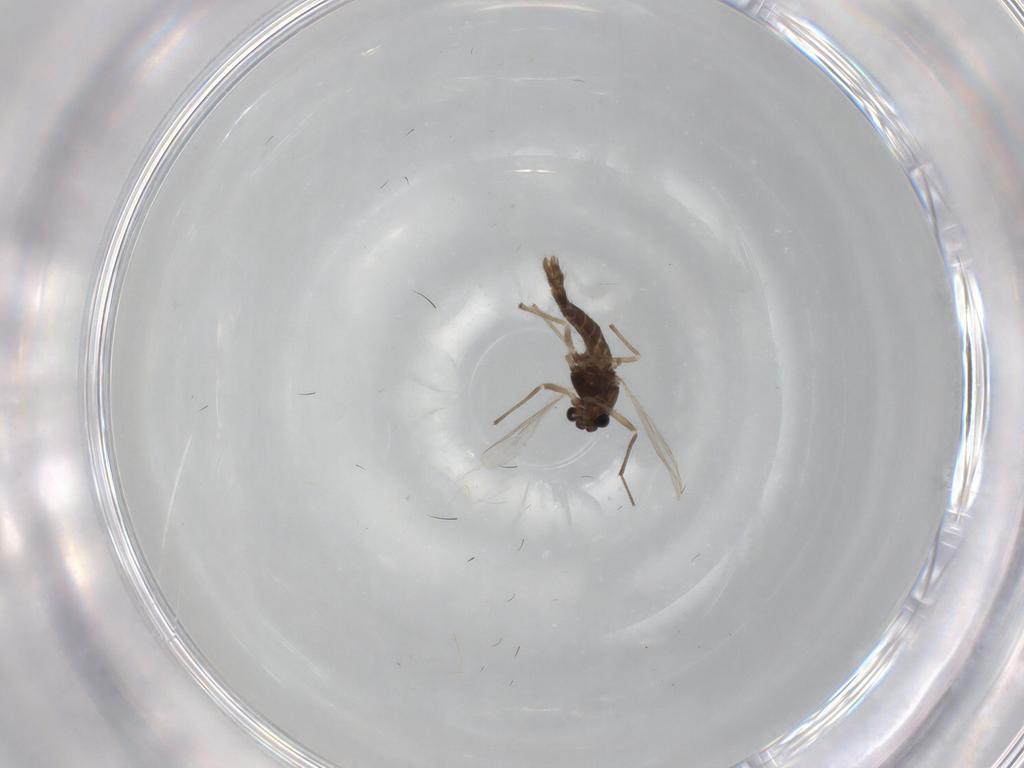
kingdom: Animalia
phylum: Arthropoda
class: Insecta
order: Diptera
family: Chironomidae
